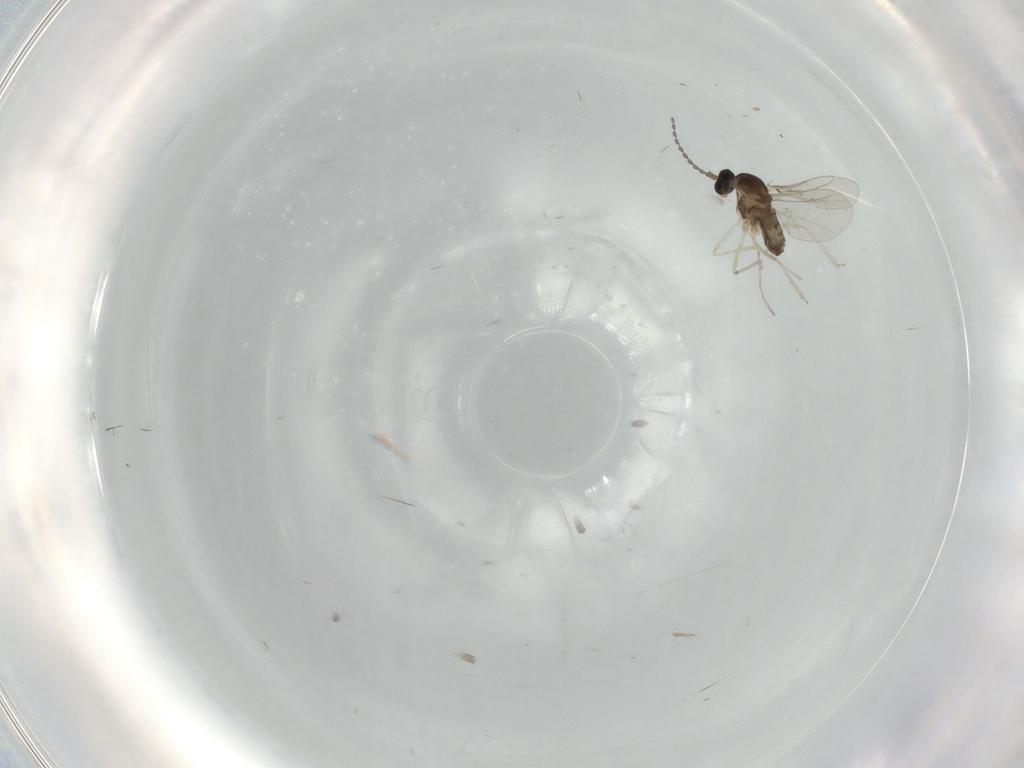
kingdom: Animalia
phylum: Arthropoda
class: Insecta
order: Diptera
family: Cecidomyiidae
